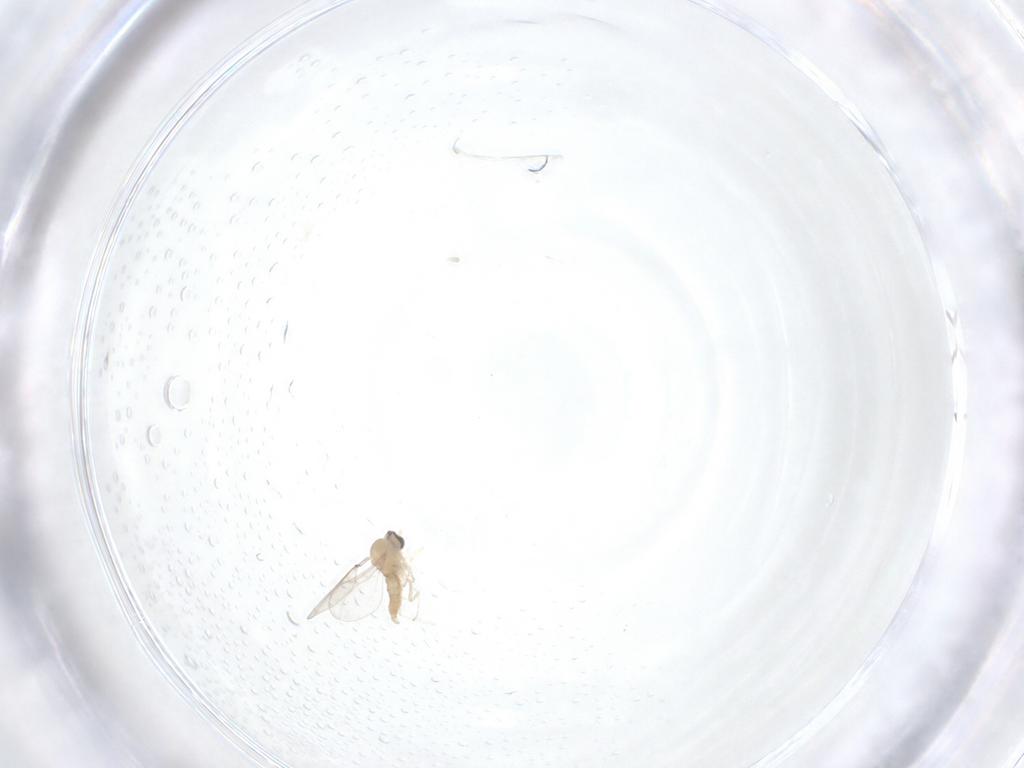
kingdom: Animalia
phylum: Arthropoda
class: Insecta
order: Diptera
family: Cecidomyiidae
